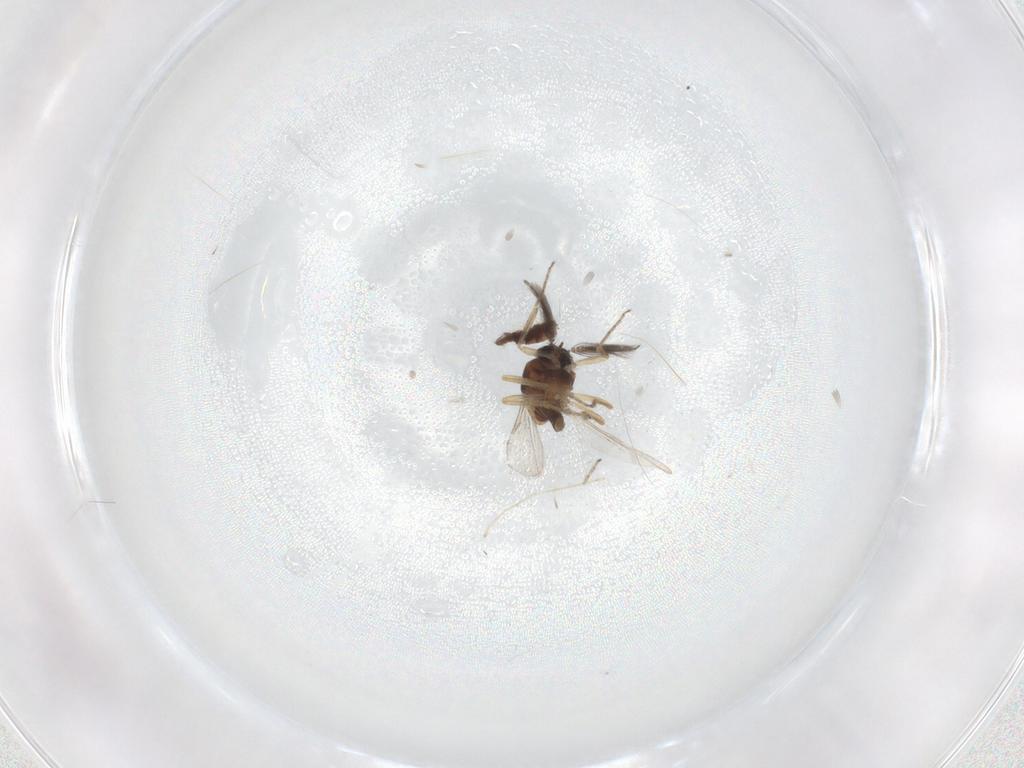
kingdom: Animalia
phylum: Arthropoda
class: Insecta
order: Diptera
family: Ceratopogonidae
